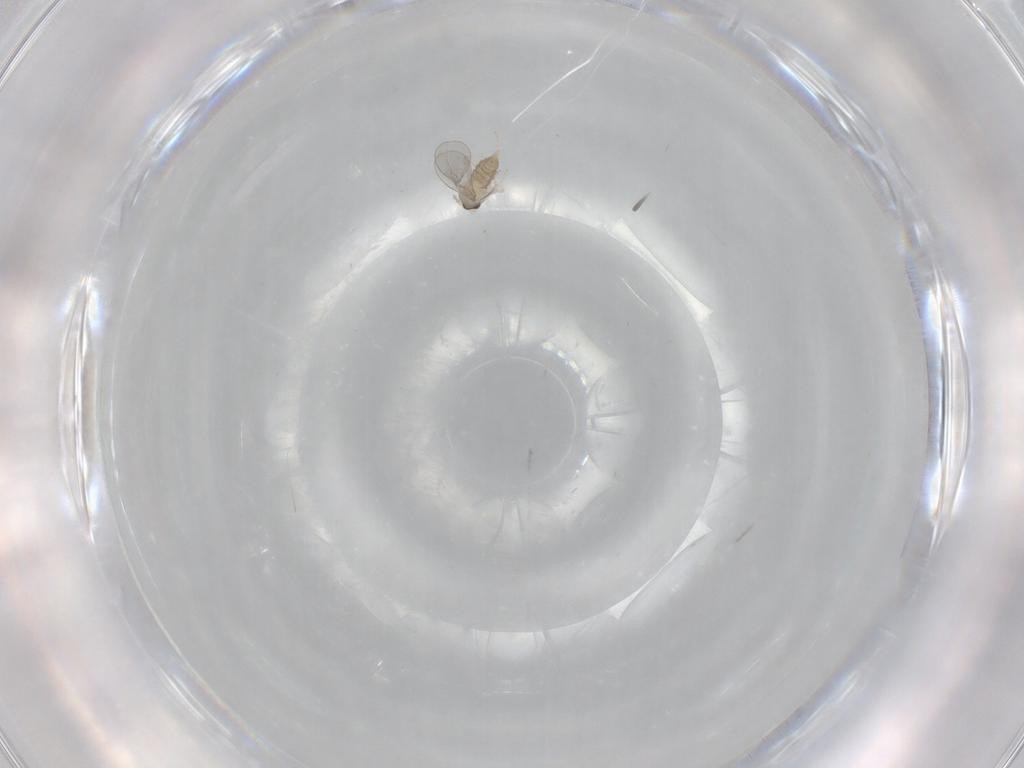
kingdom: Animalia
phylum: Arthropoda
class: Insecta
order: Diptera
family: Cecidomyiidae
